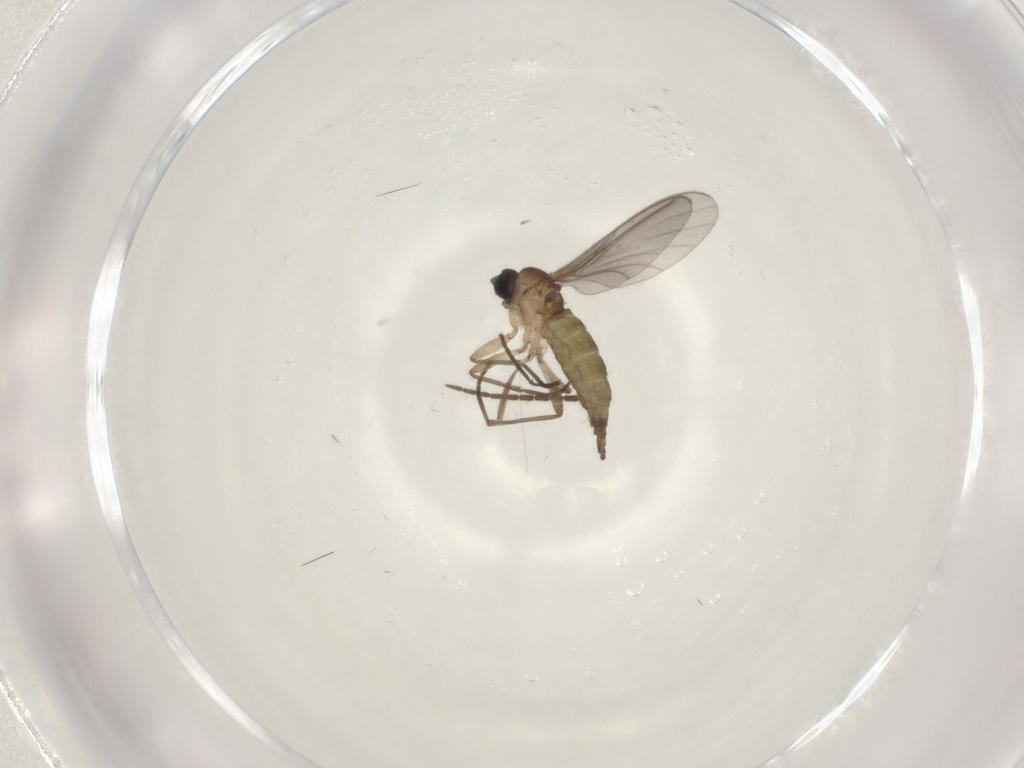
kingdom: Animalia
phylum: Arthropoda
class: Insecta
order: Diptera
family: Sciaridae
